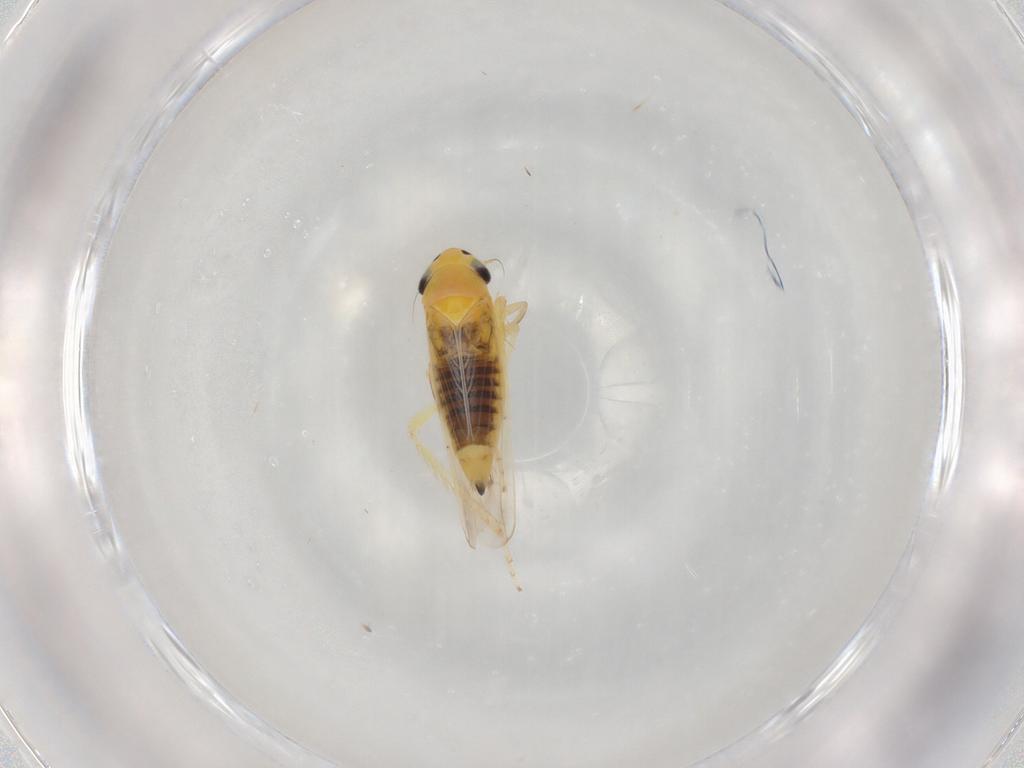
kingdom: Animalia
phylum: Arthropoda
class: Insecta
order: Hemiptera
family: Cicadellidae
